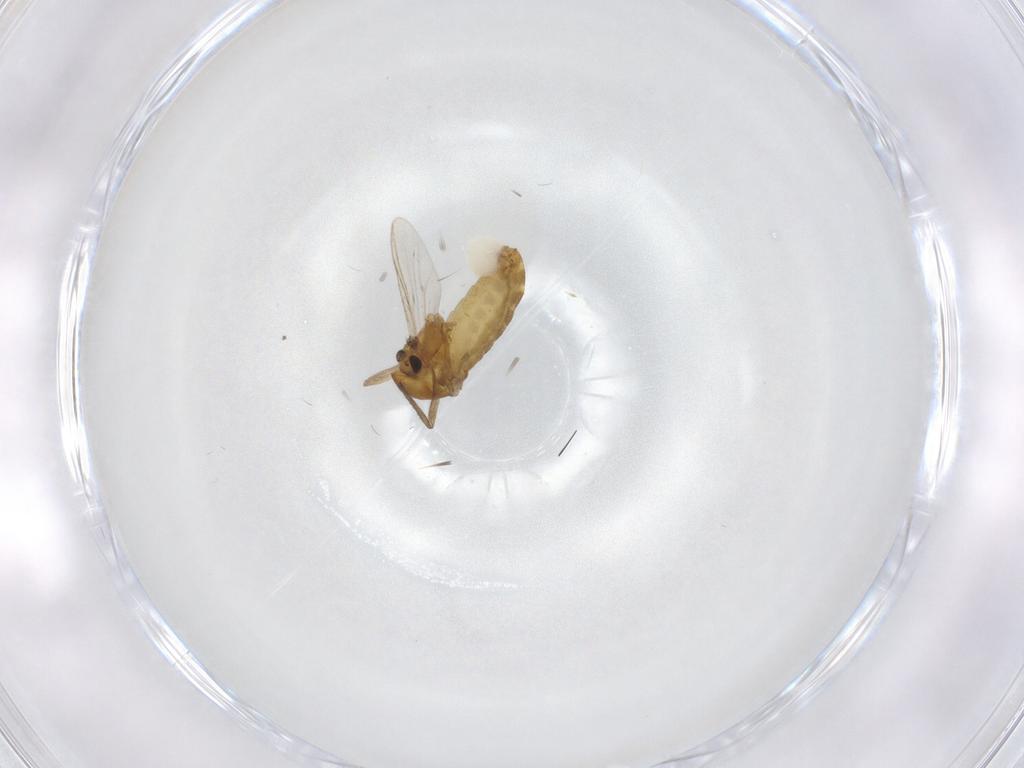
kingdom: Animalia
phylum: Arthropoda
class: Insecta
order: Diptera
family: Chironomidae
